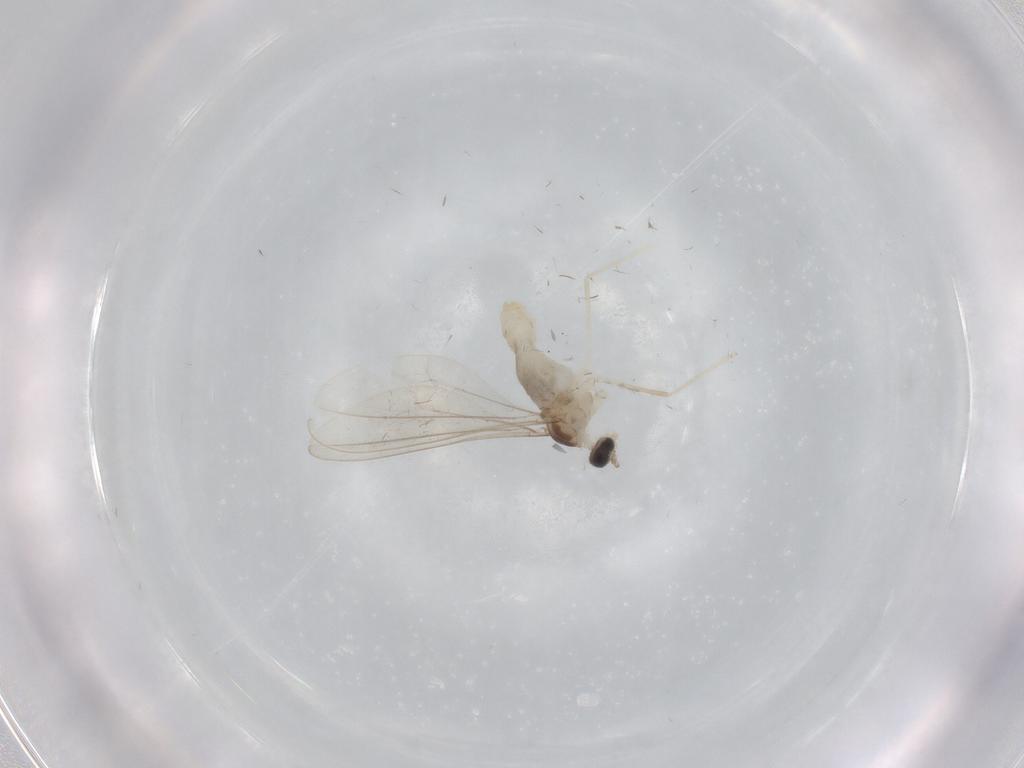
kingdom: Animalia
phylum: Arthropoda
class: Insecta
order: Diptera
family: Cecidomyiidae
